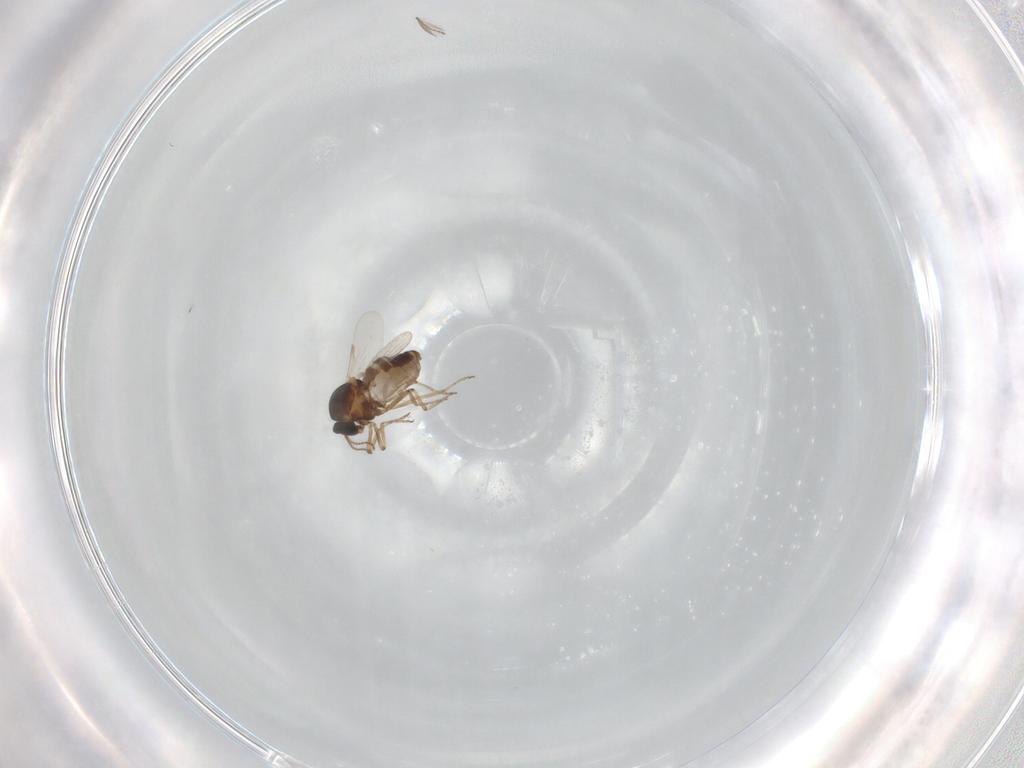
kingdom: Animalia
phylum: Arthropoda
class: Insecta
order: Diptera
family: Ceratopogonidae
